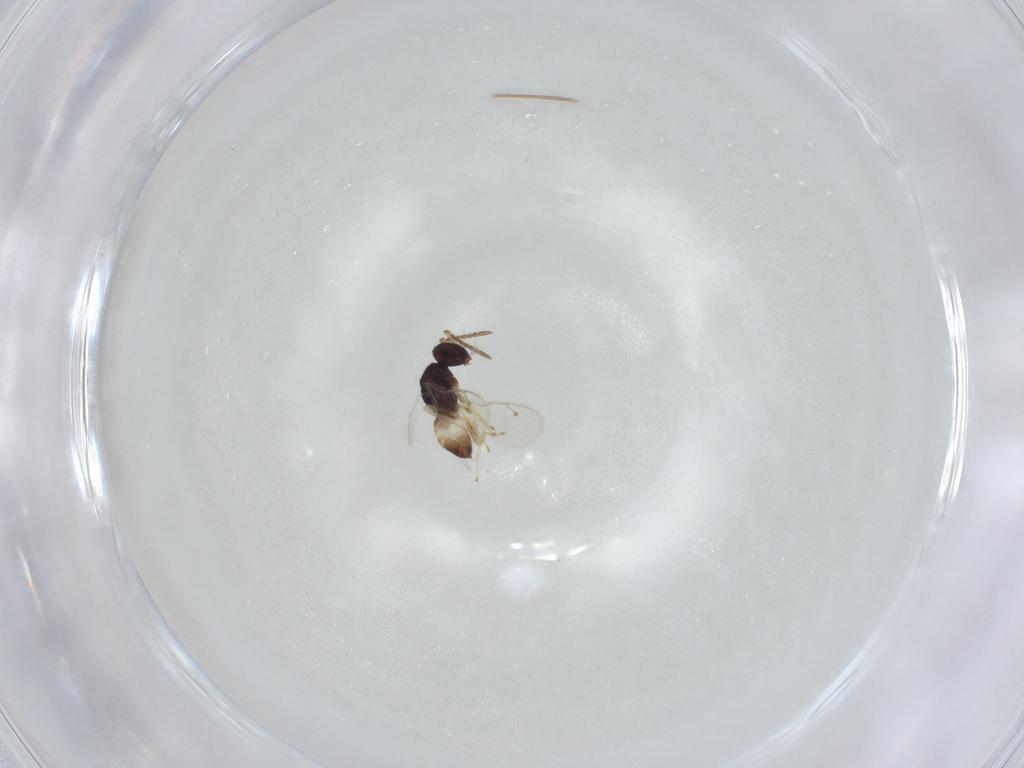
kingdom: Animalia
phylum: Arthropoda
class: Insecta
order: Hymenoptera
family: Pteromalidae
